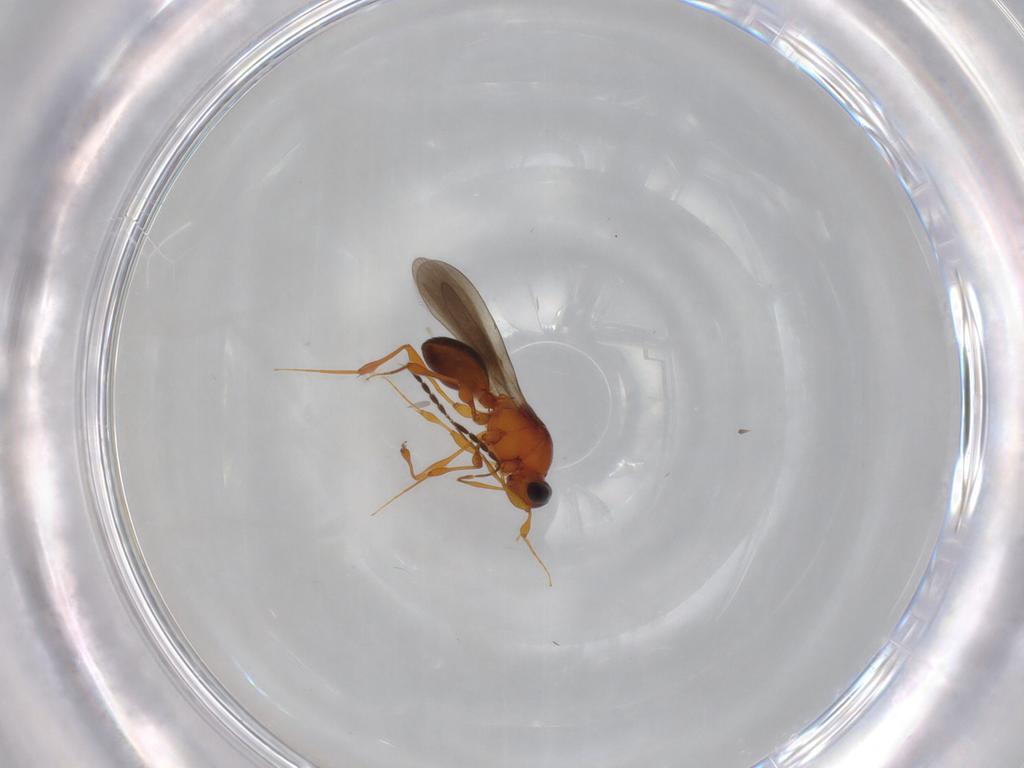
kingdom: Animalia
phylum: Arthropoda
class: Insecta
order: Hymenoptera
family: Platygastridae
